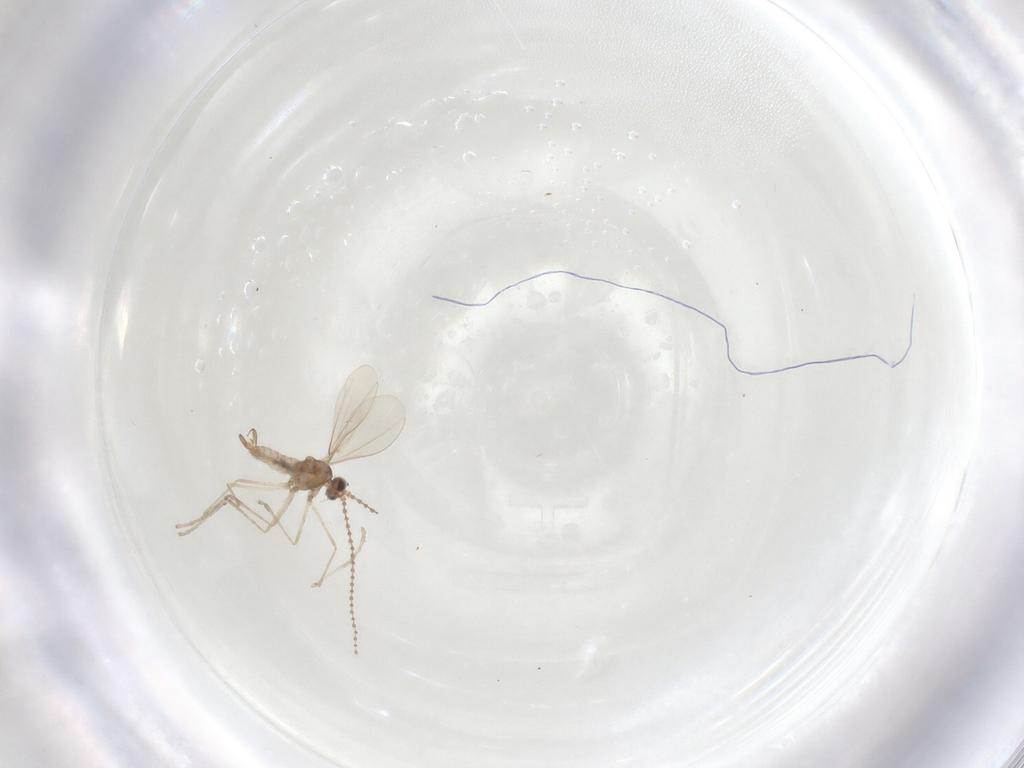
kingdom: Animalia
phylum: Arthropoda
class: Insecta
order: Diptera
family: Cecidomyiidae
